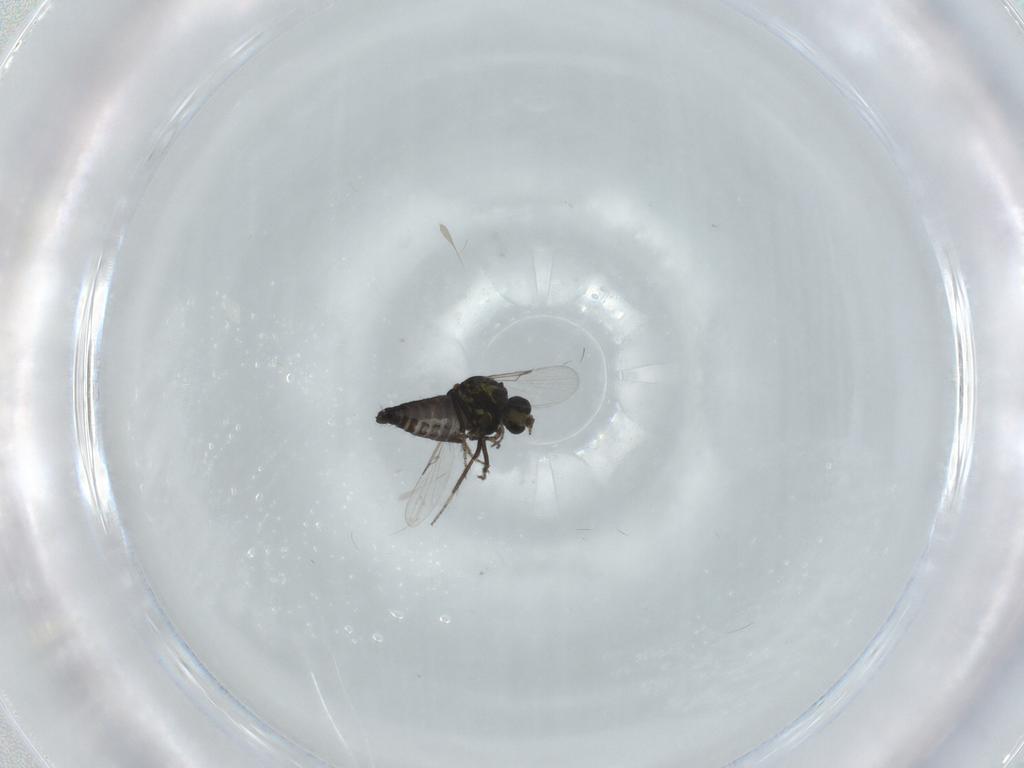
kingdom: Animalia
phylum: Arthropoda
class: Insecta
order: Diptera
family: Ceratopogonidae
